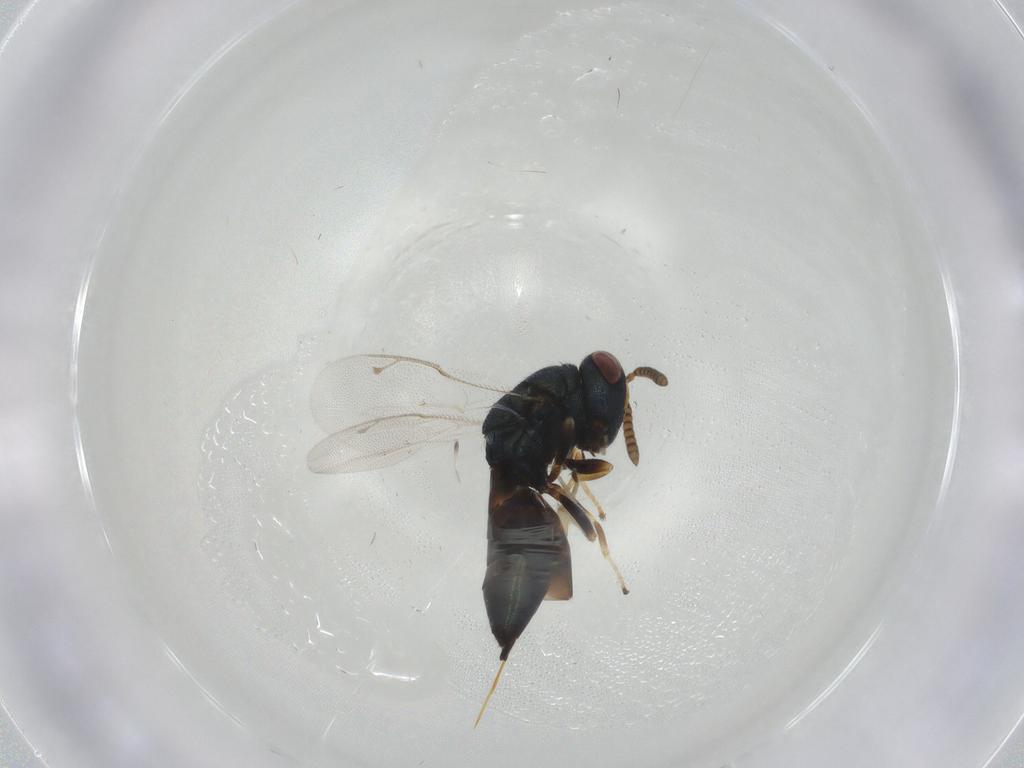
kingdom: Animalia
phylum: Arthropoda
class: Insecta
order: Hymenoptera
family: Pteromalidae
